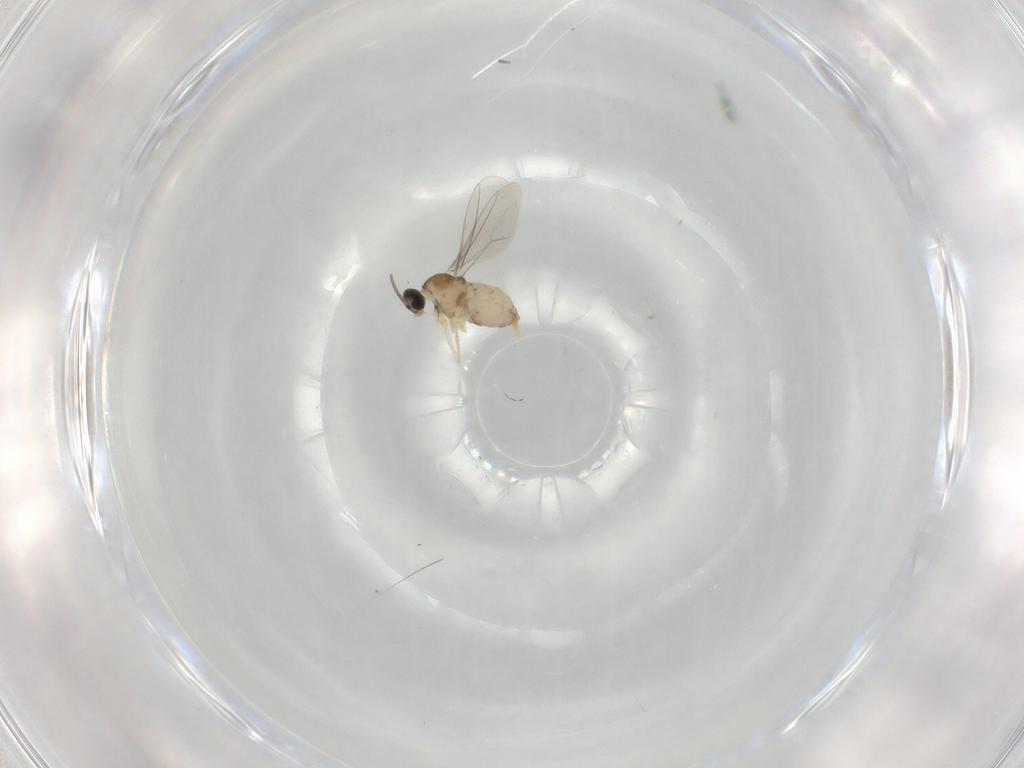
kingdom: Animalia
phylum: Arthropoda
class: Insecta
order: Diptera
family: Cecidomyiidae
